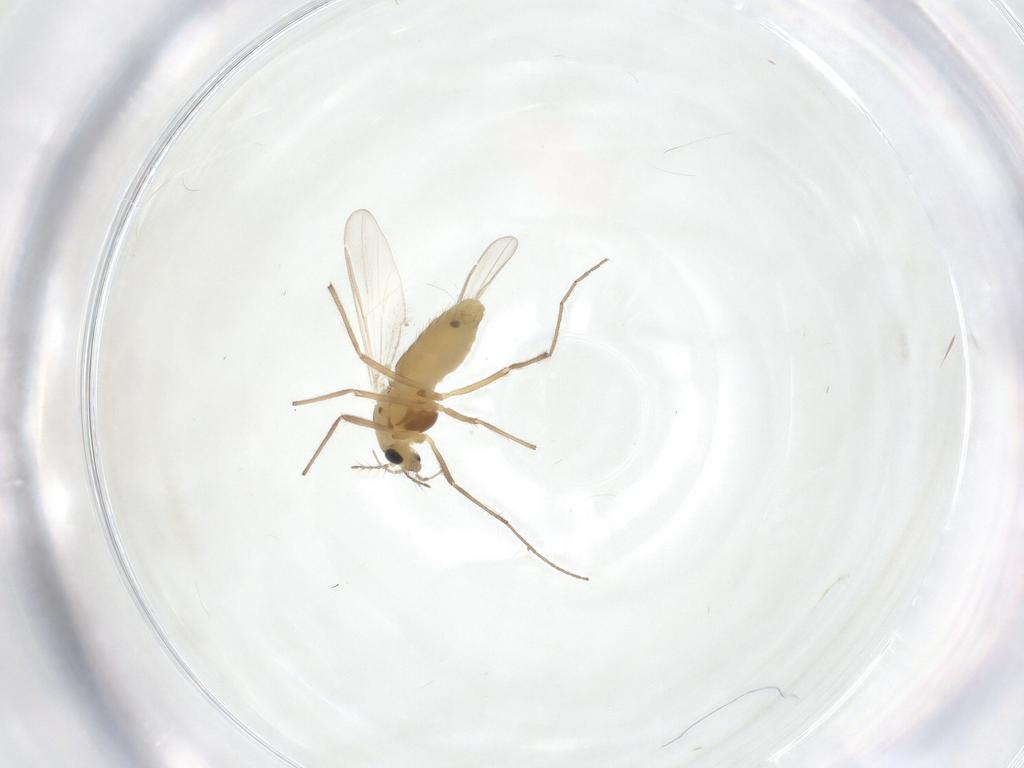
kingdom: Animalia
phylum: Arthropoda
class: Insecta
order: Diptera
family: Chironomidae
